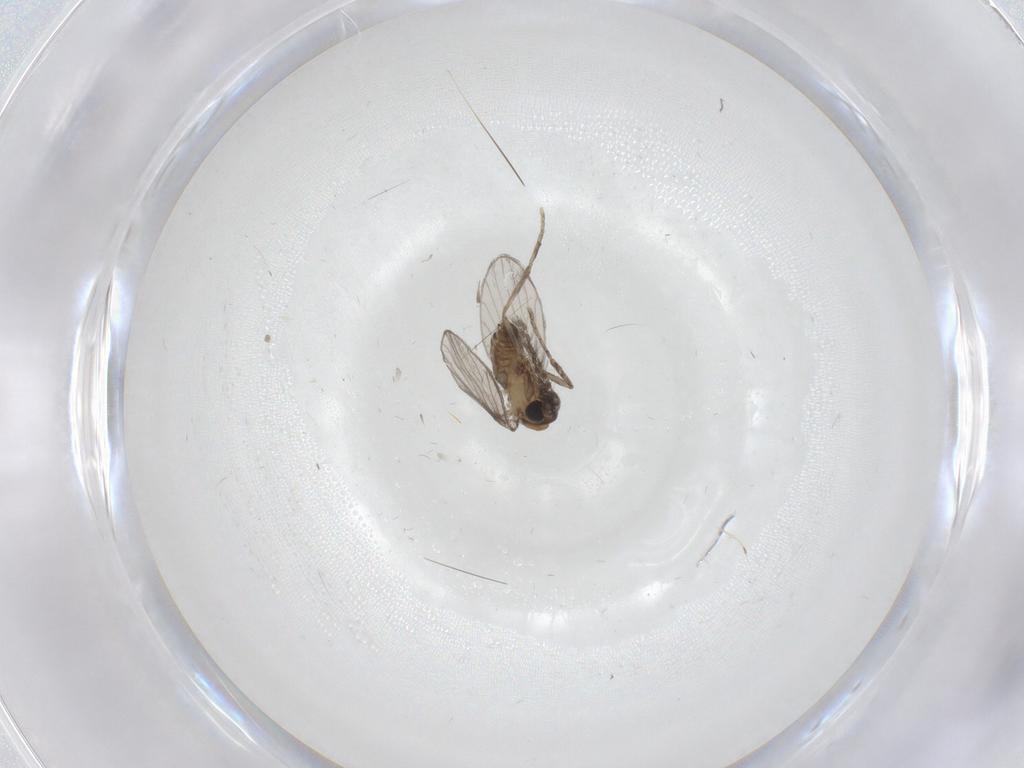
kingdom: Animalia
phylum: Arthropoda
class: Insecta
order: Diptera
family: Psychodidae
